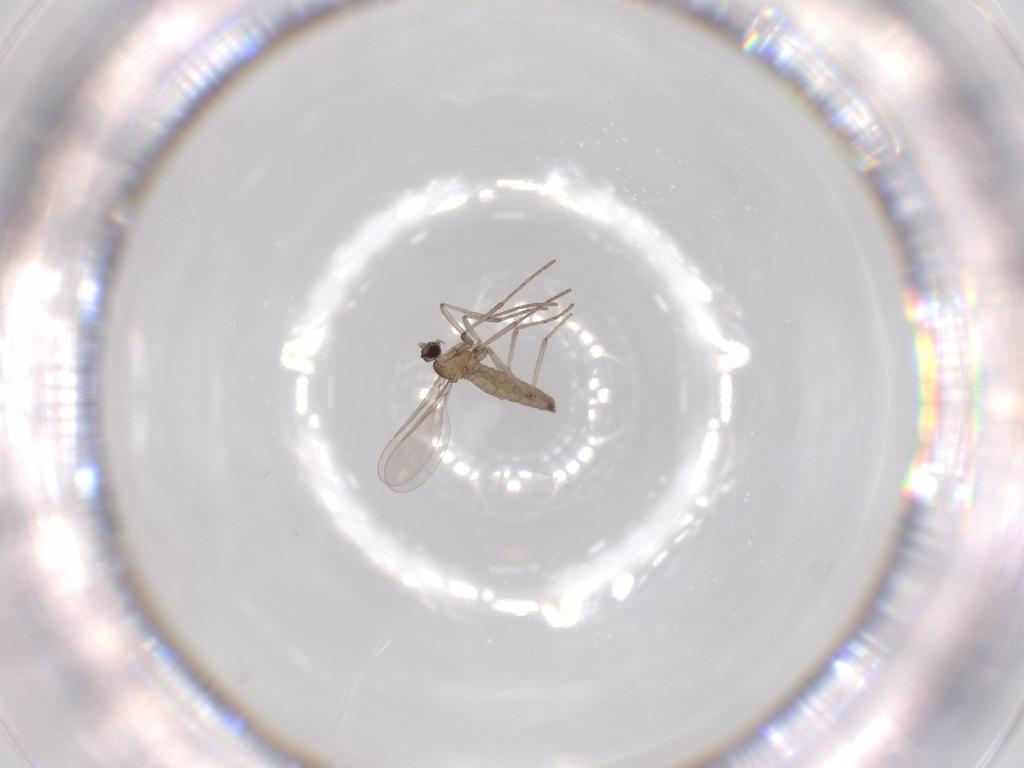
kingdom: Animalia
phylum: Arthropoda
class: Insecta
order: Diptera
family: Cecidomyiidae
